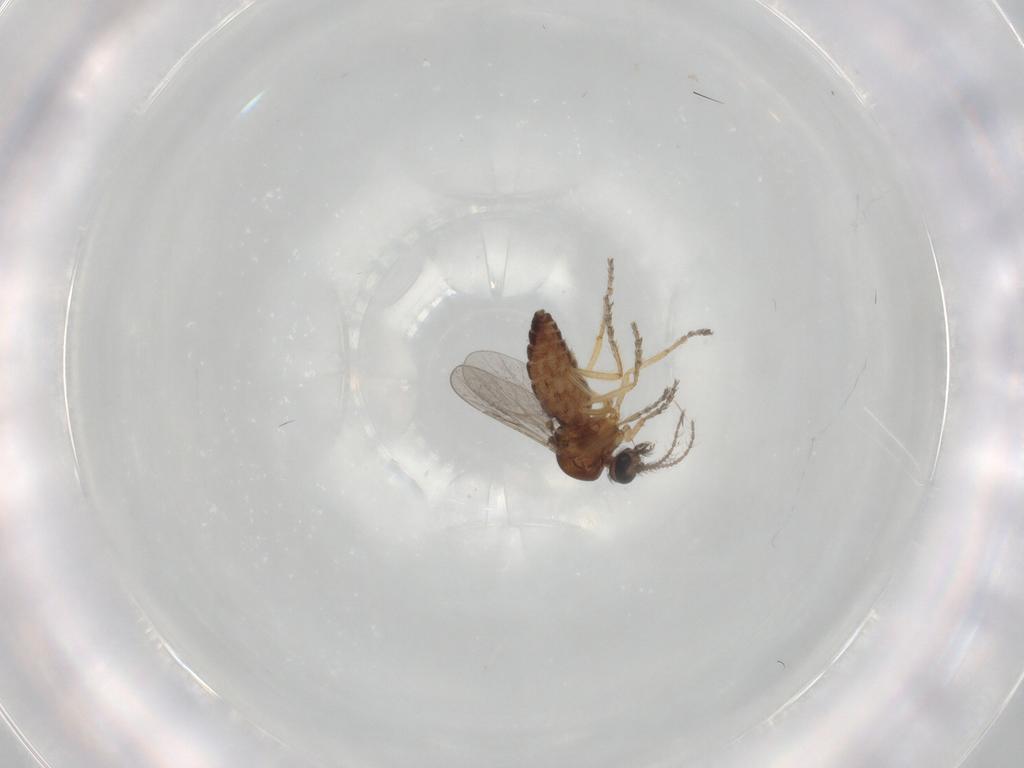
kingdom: Animalia
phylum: Arthropoda
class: Insecta
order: Diptera
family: Ceratopogonidae
